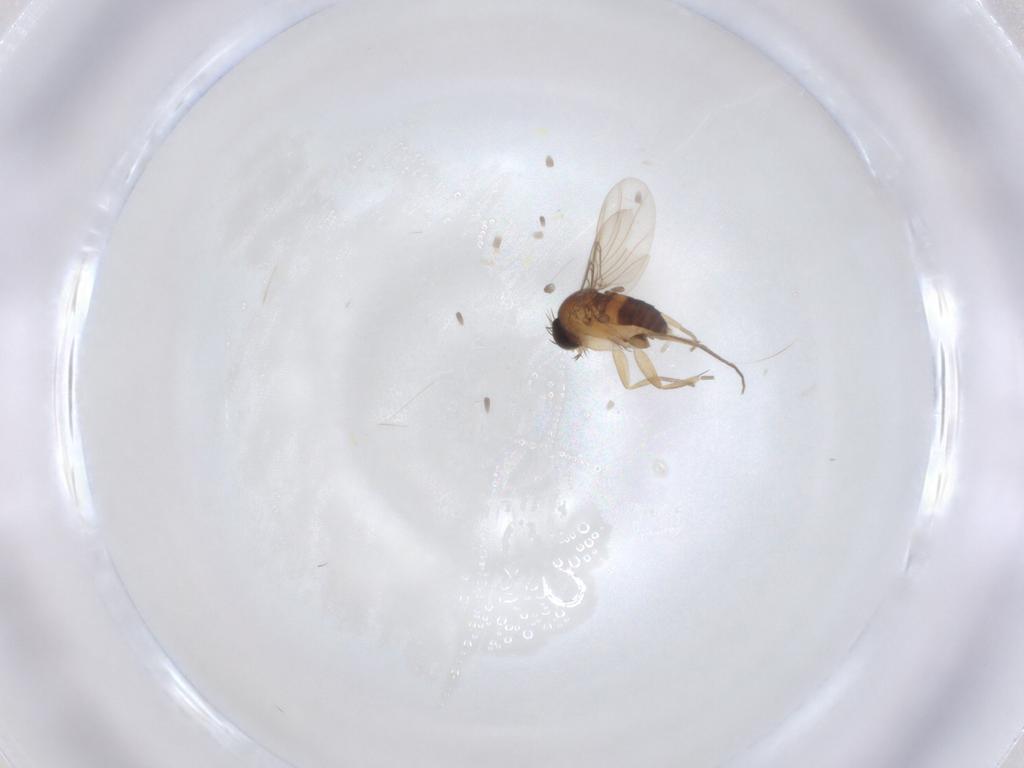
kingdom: Animalia
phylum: Arthropoda
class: Insecta
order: Diptera
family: Phoridae
